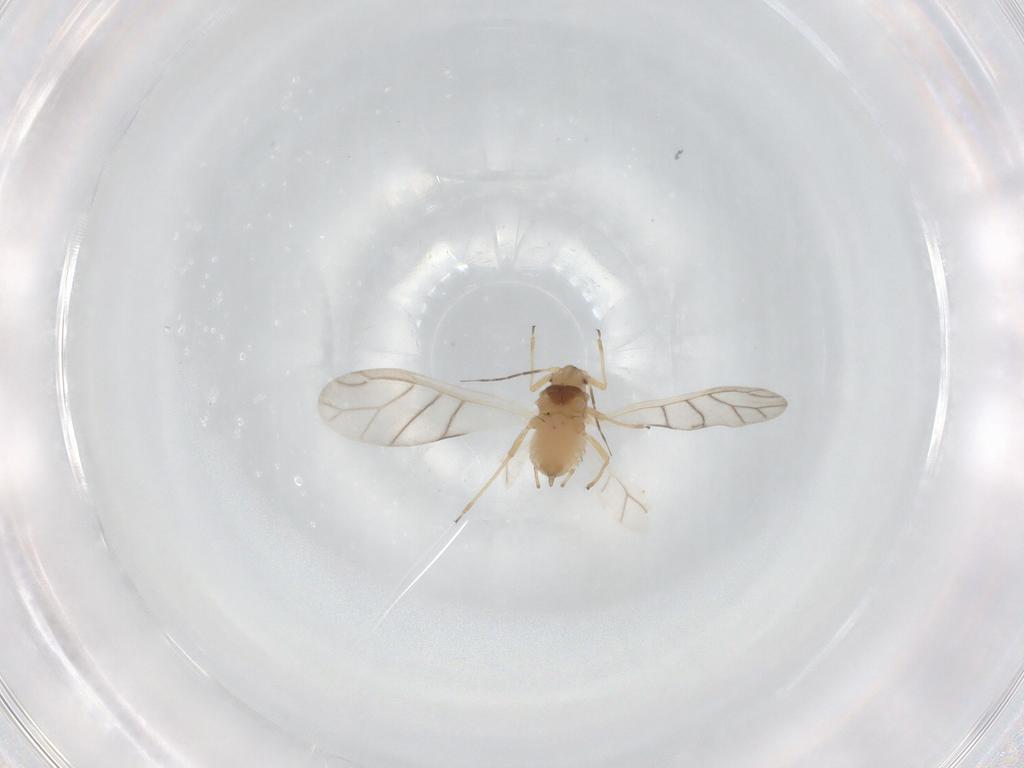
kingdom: Animalia
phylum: Arthropoda
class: Insecta
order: Hemiptera
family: Aphididae
